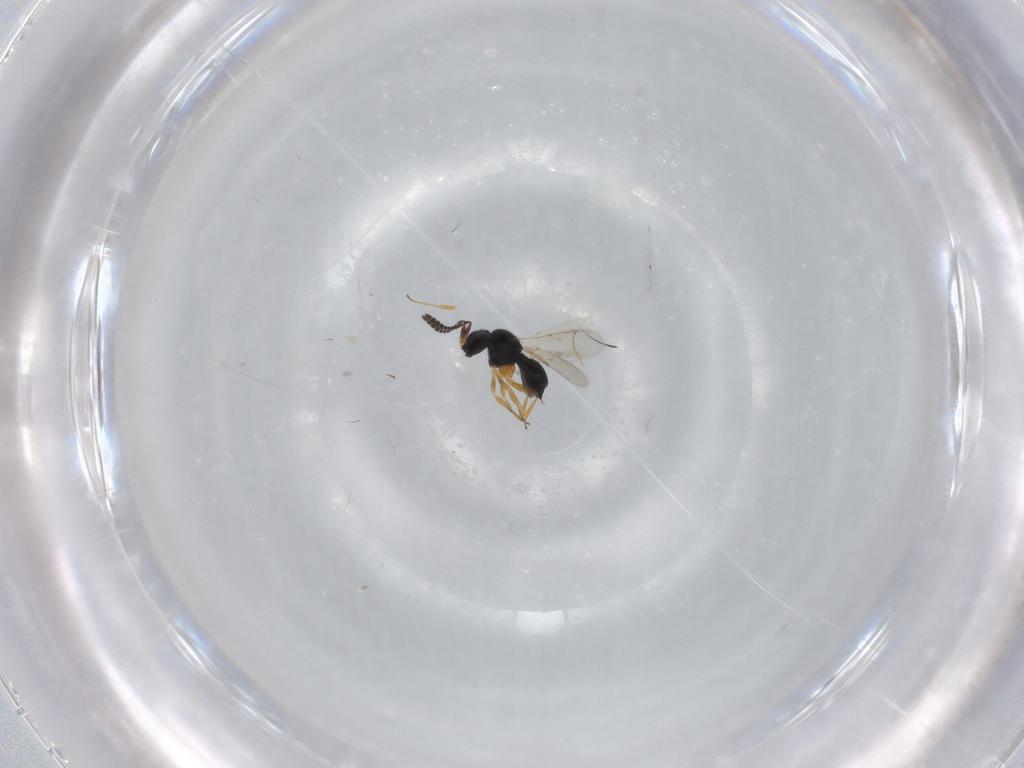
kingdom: Animalia
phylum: Arthropoda
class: Insecta
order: Hymenoptera
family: Scelionidae
